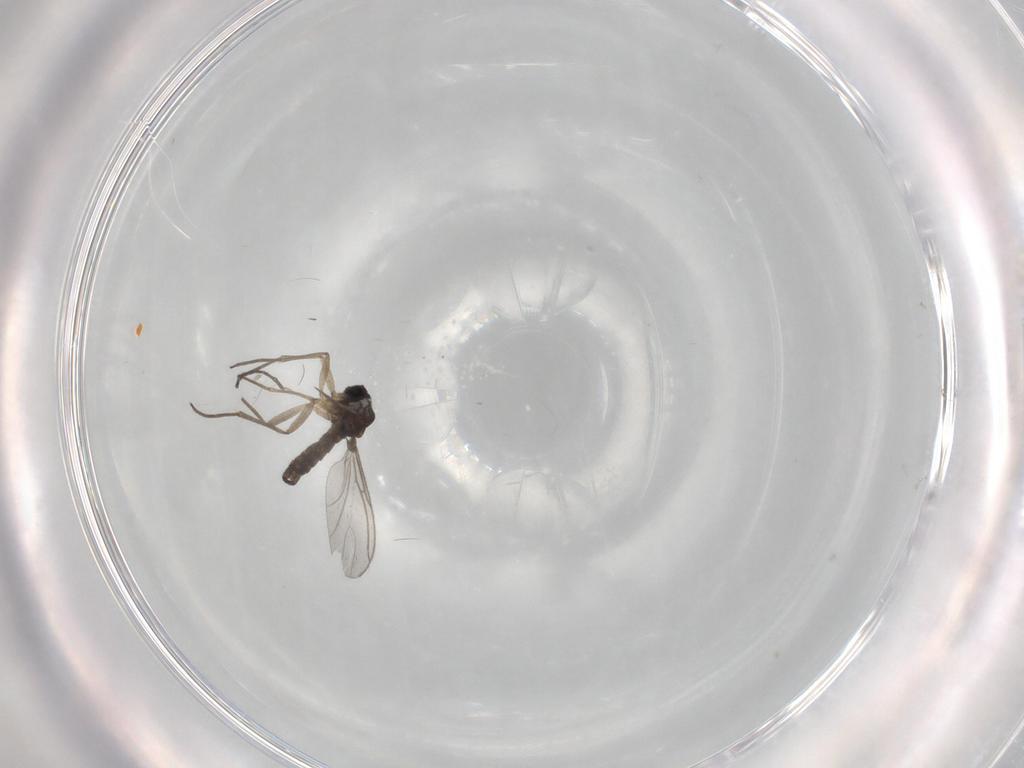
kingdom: Animalia
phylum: Arthropoda
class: Insecta
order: Diptera
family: Sciaridae
